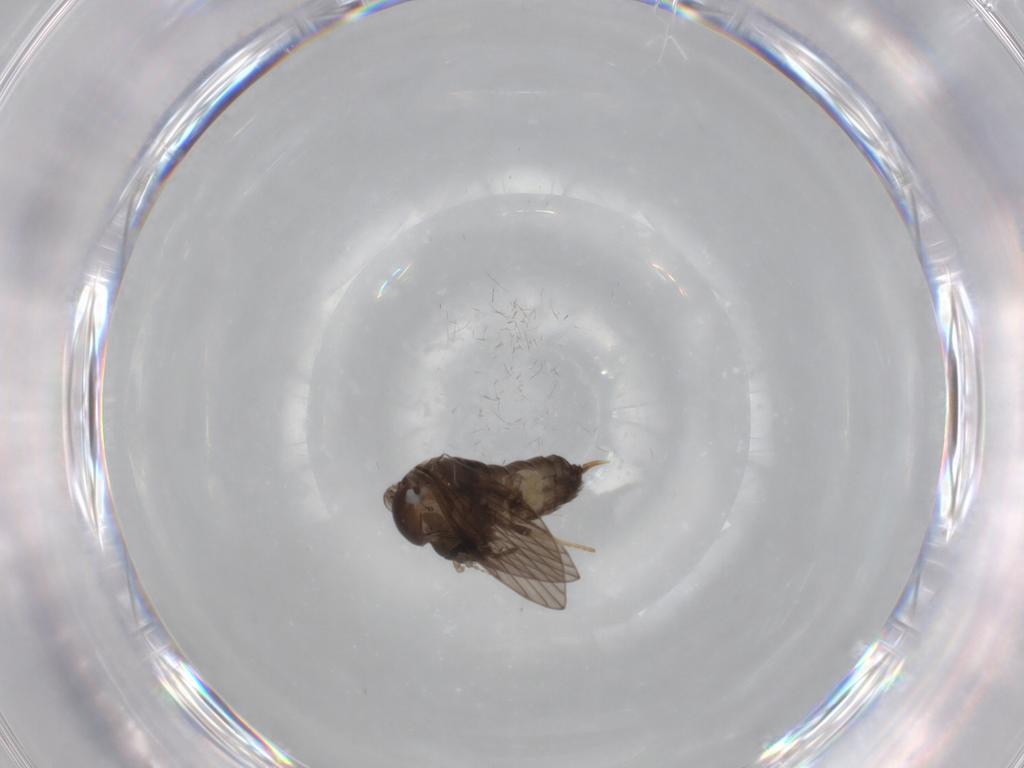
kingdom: Animalia
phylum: Arthropoda
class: Insecta
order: Diptera
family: Psychodidae
